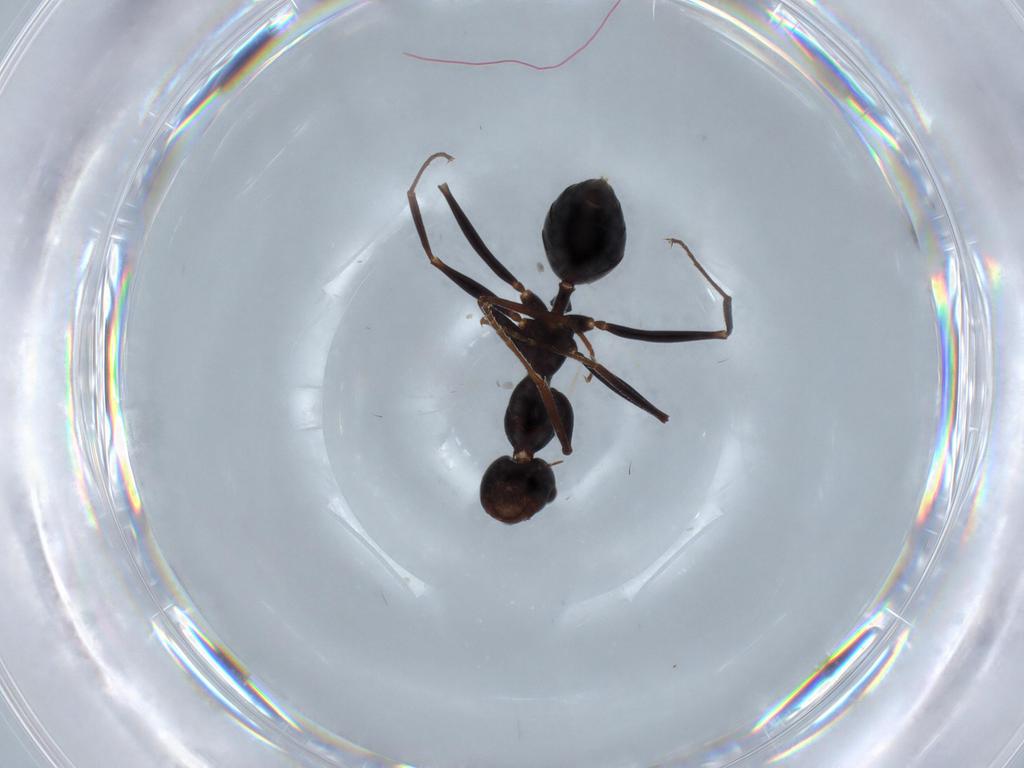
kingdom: Animalia
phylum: Arthropoda
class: Insecta
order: Hymenoptera
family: Formicidae
